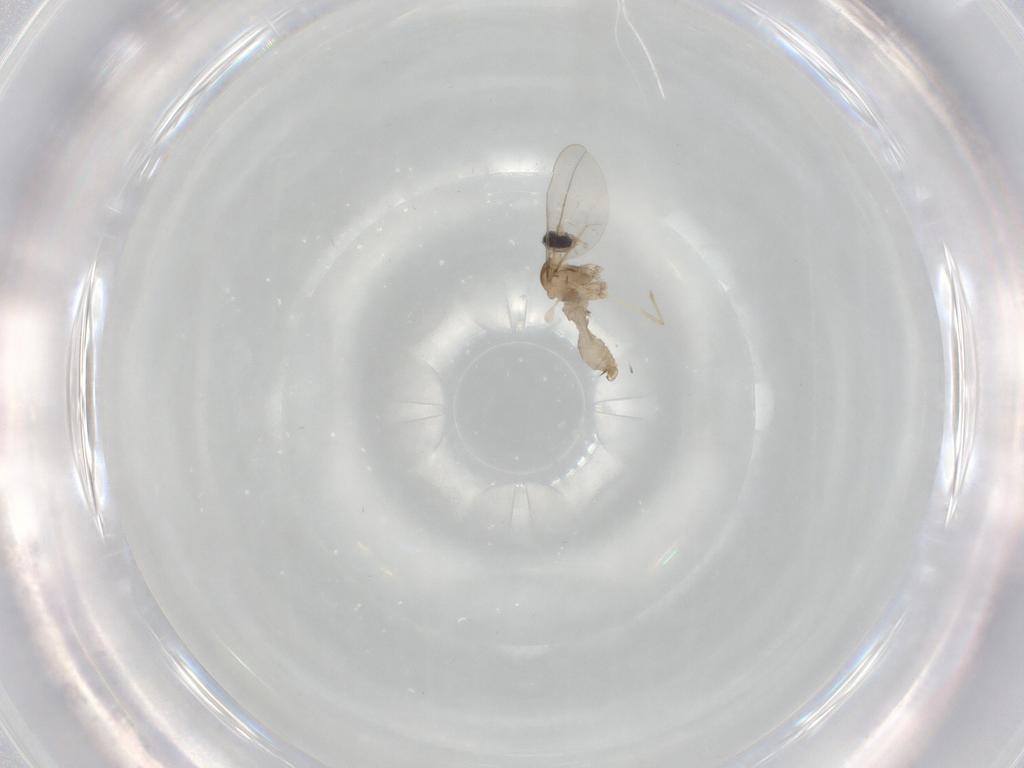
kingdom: Animalia
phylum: Arthropoda
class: Insecta
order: Diptera
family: Cecidomyiidae
